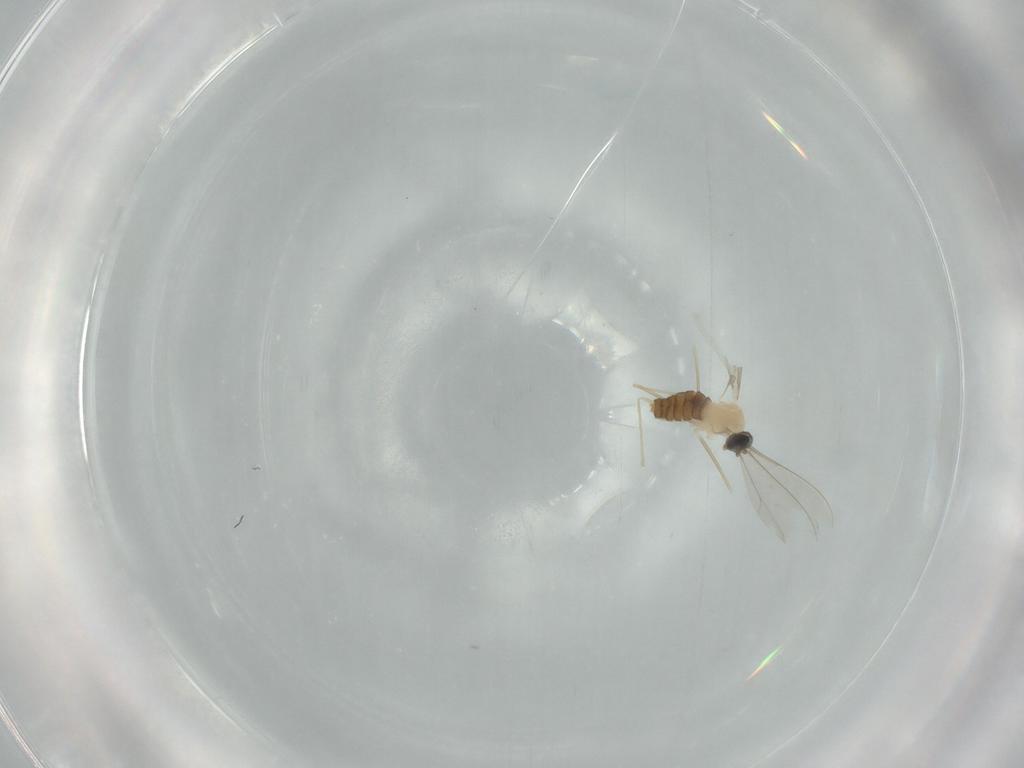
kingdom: Animalia
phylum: Arthropoda
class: Insecta
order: Diptera
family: Cecidomyiidae
